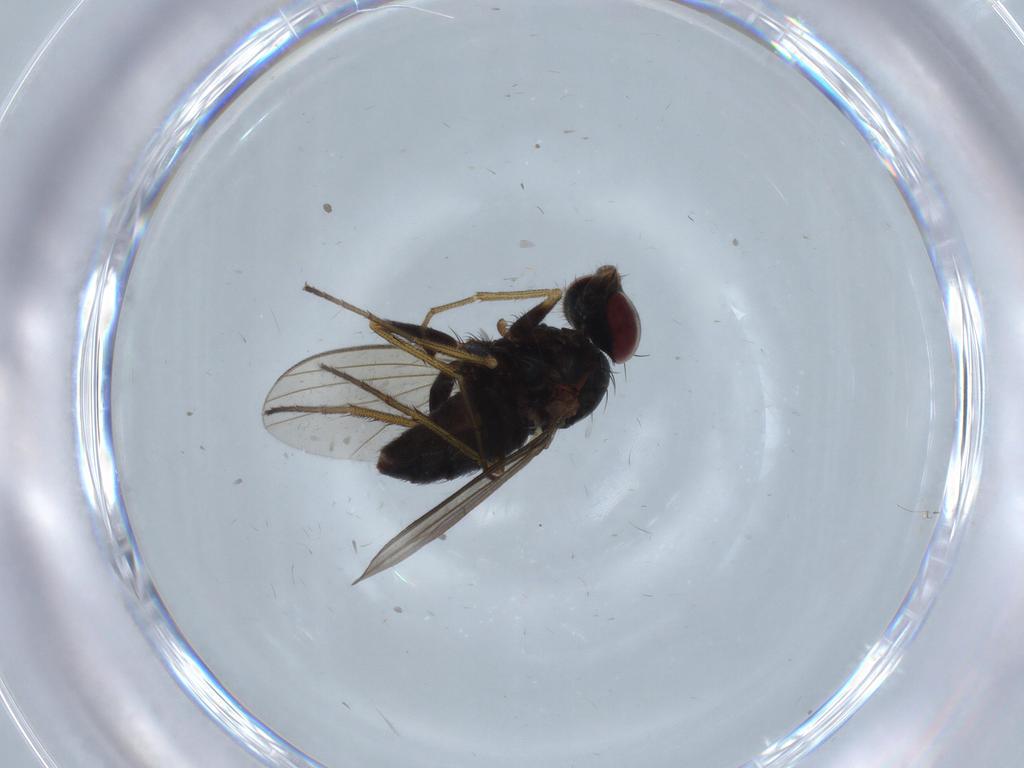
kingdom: Animalia
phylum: Arthropoda
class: Insecta
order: Diptera
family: Dolichopodidae
